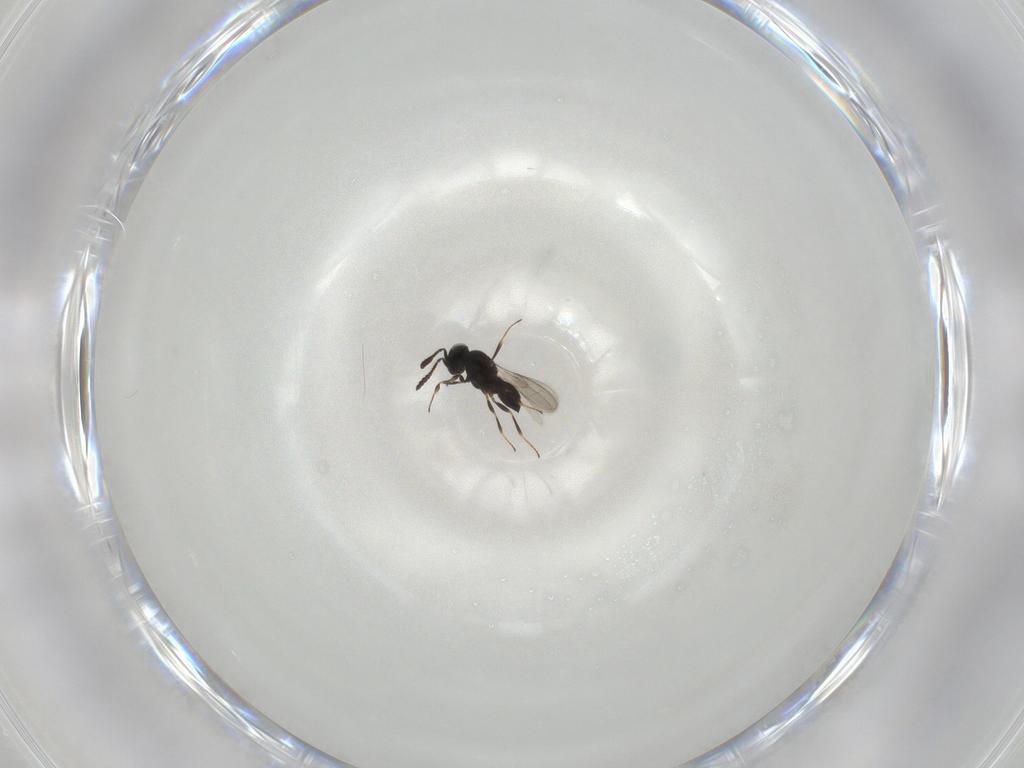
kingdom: Animalia
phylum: Arthropoda
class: Insecta
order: Hymenoptera
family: Scelionidae
